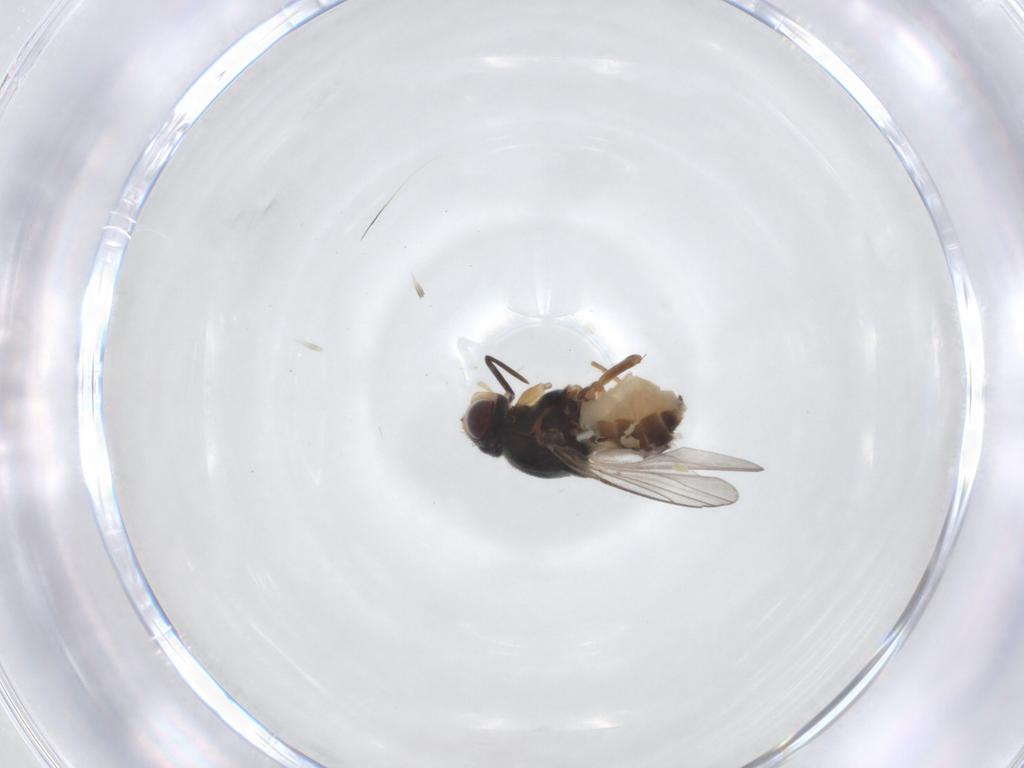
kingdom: Animalia
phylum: Arthropoda
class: Insecta
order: Diptera
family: Chloropidae
